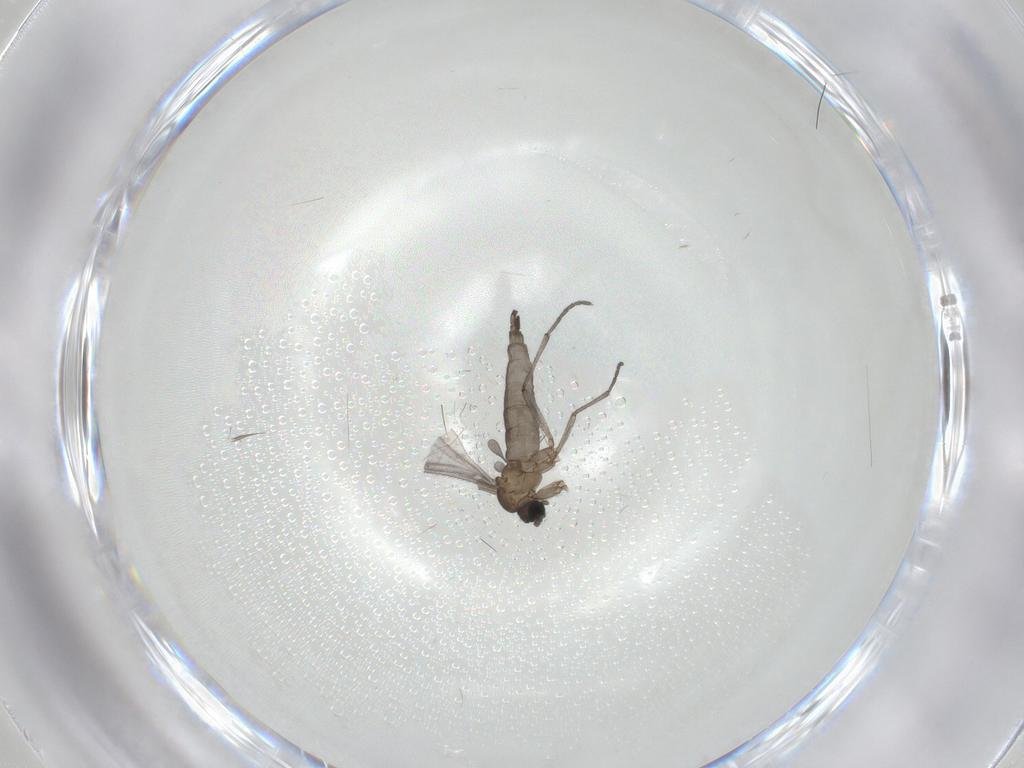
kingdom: Animalia
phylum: Arthropoda
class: Insecta
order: Diptera
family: Sciaridae
